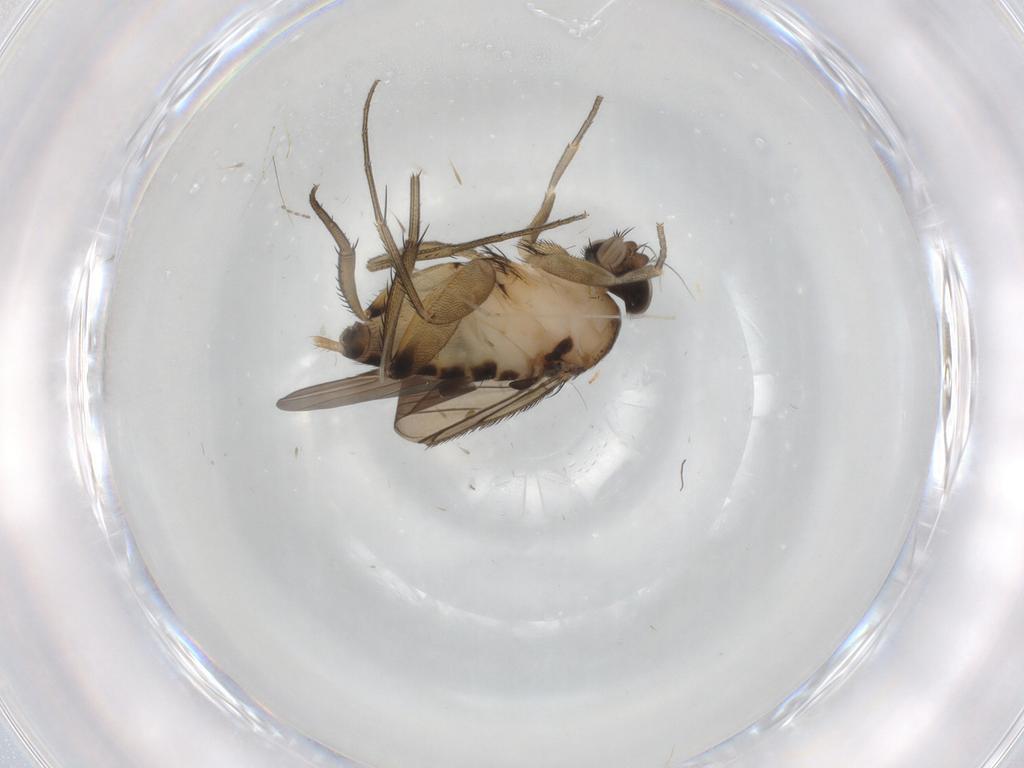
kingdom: Animalia
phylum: Arthropoda
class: Insecta
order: Diptera
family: Phoridae
